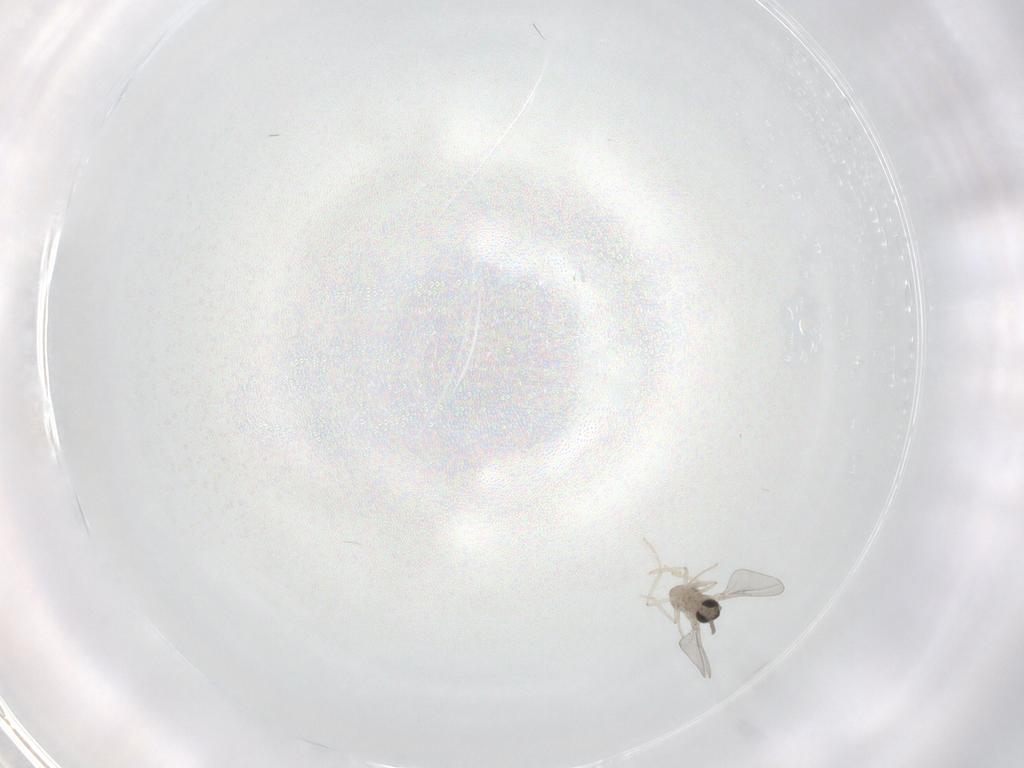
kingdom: Animalia
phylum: Arthropoda
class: Insecta
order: Diptera
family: Cecidomyiidae
